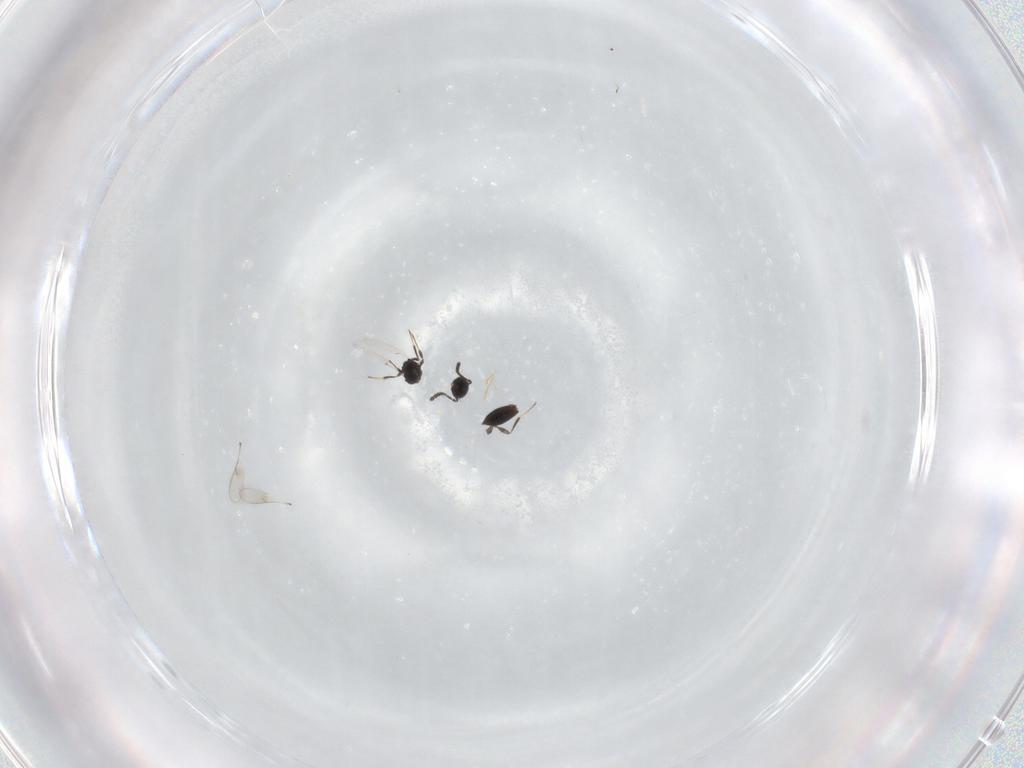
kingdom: Animalia
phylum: Arthropoda
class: Insecta
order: Hymenoptera
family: Scelionidae
